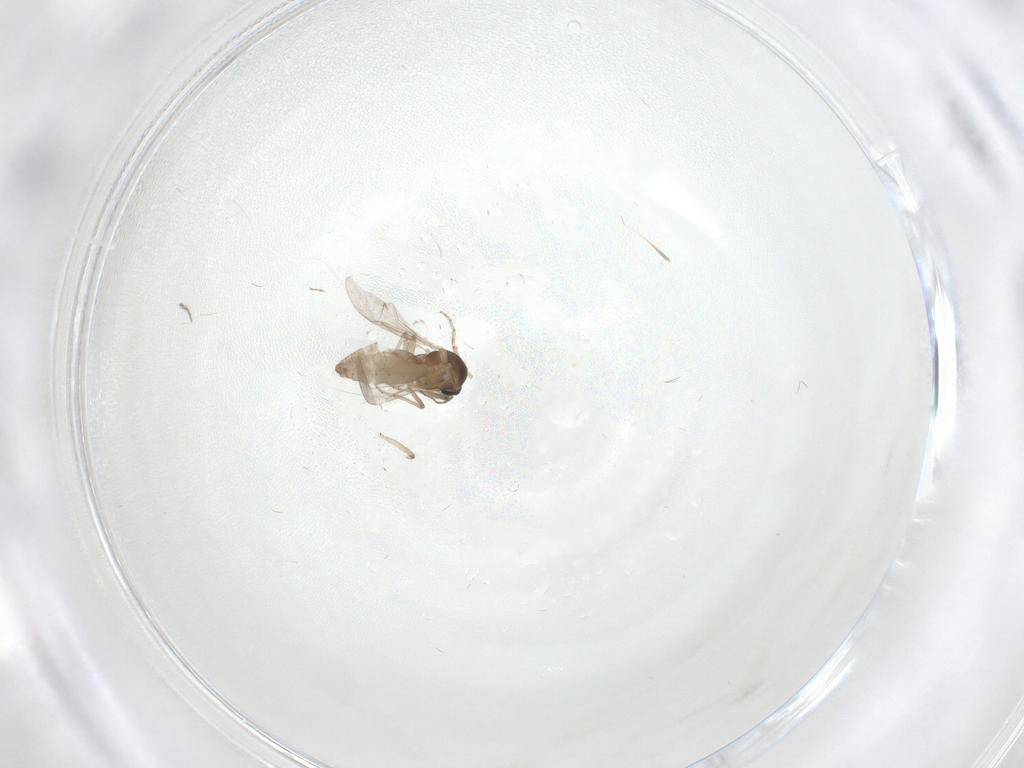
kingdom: Animalia
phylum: Arthropoda
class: Insecta
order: Diptera
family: Ceratopogonidae
